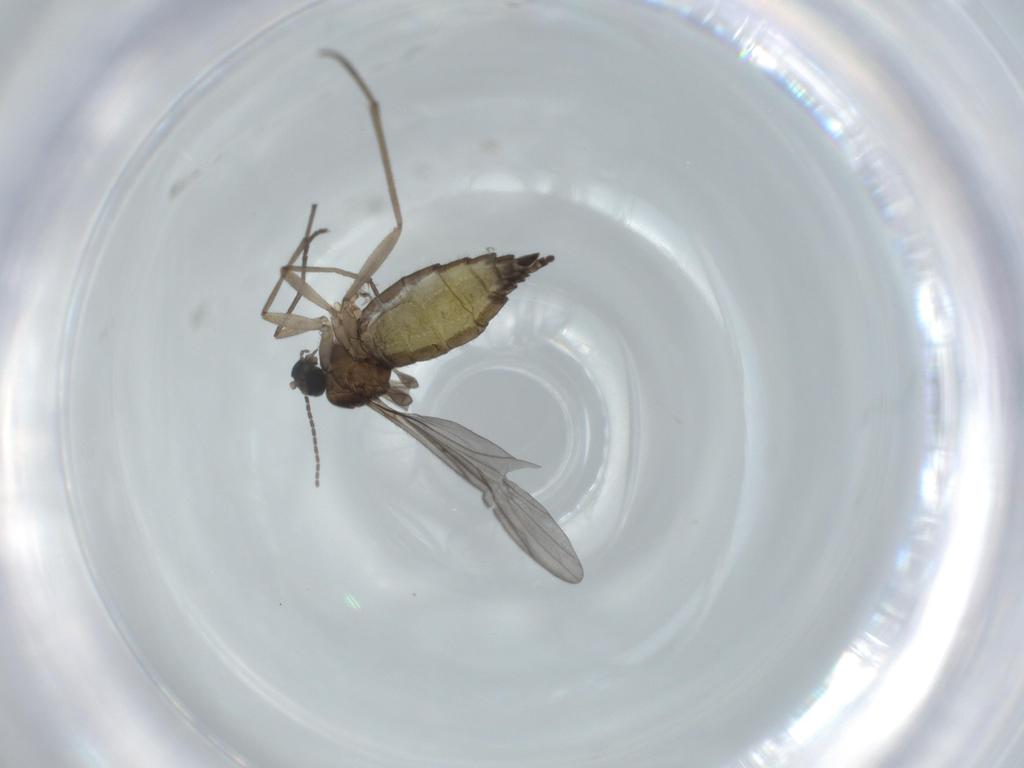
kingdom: Animalia
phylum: Arthropoda
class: Insecta
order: Diptera
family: Sciaridae
